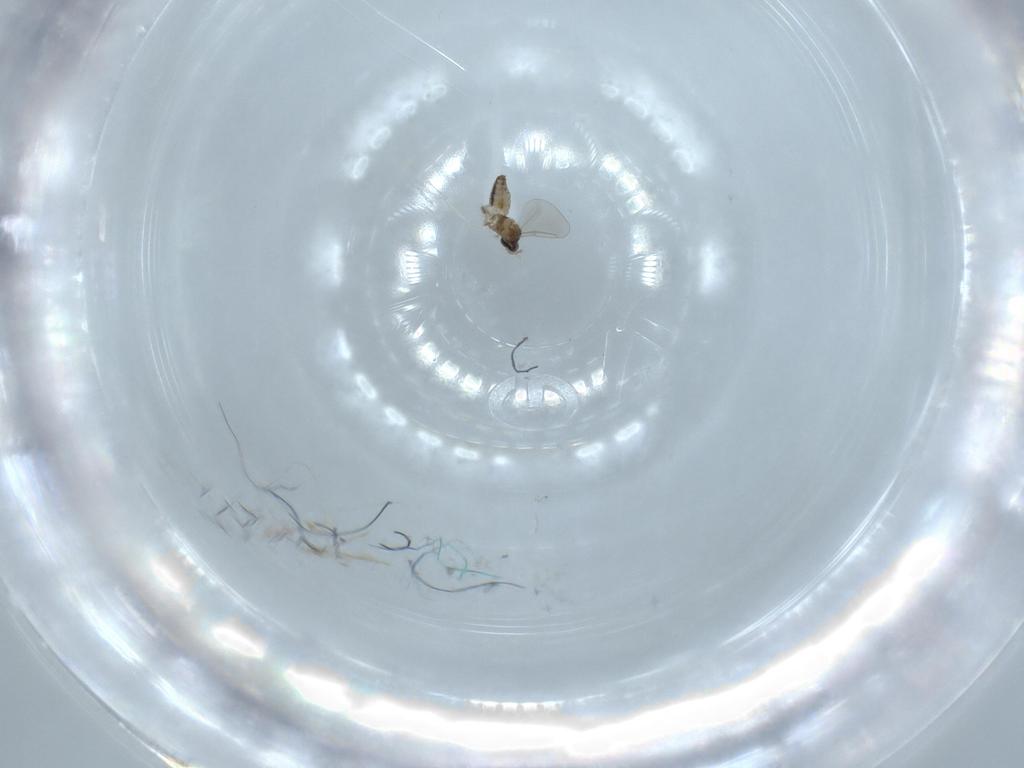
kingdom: Animalia
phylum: Arthropoda
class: Insecta
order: Diptera
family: Cecidomyiidae
